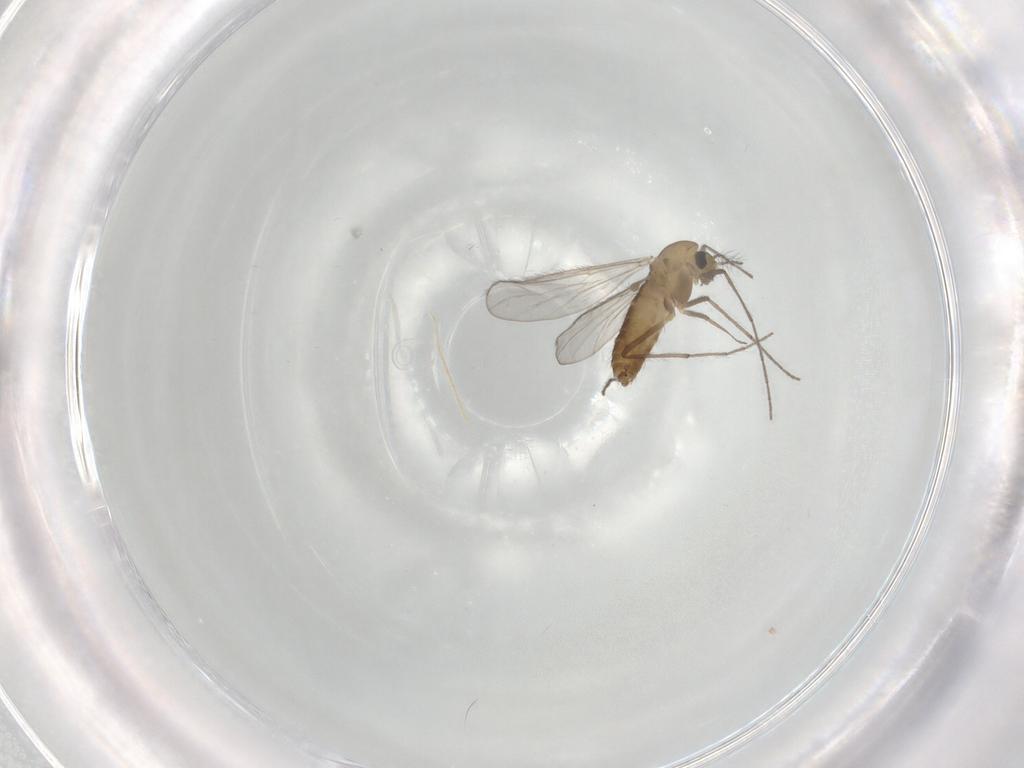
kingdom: Animalia
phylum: Arthropoda
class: Insecta
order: Diptera
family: Chironomidae
